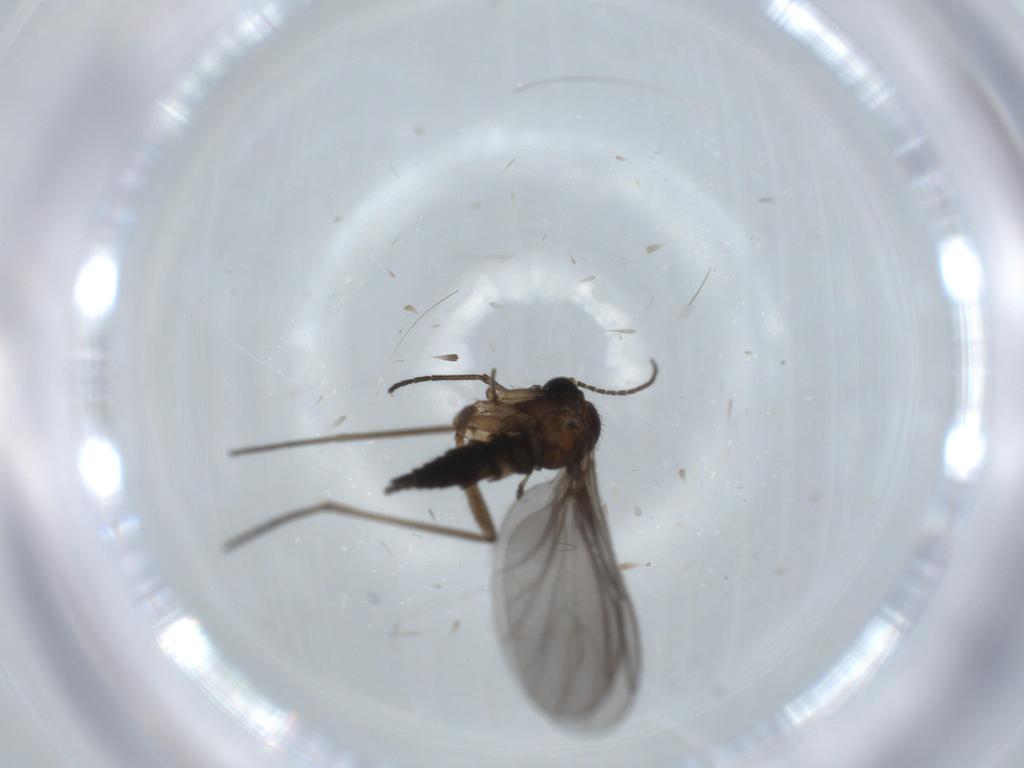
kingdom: Animalia
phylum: Arthropoda
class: Insecta
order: Diptera
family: Sciaridae
